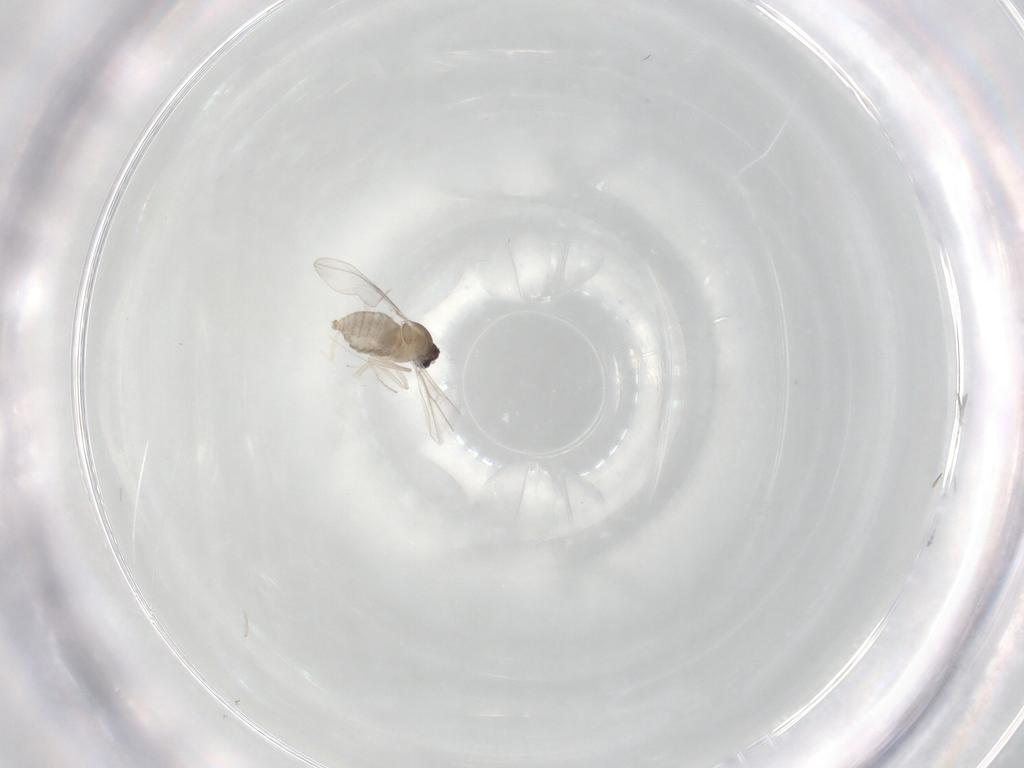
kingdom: Animalia
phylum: Arthropoda
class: Insecta
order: Diptera
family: Cecidomyiidae
